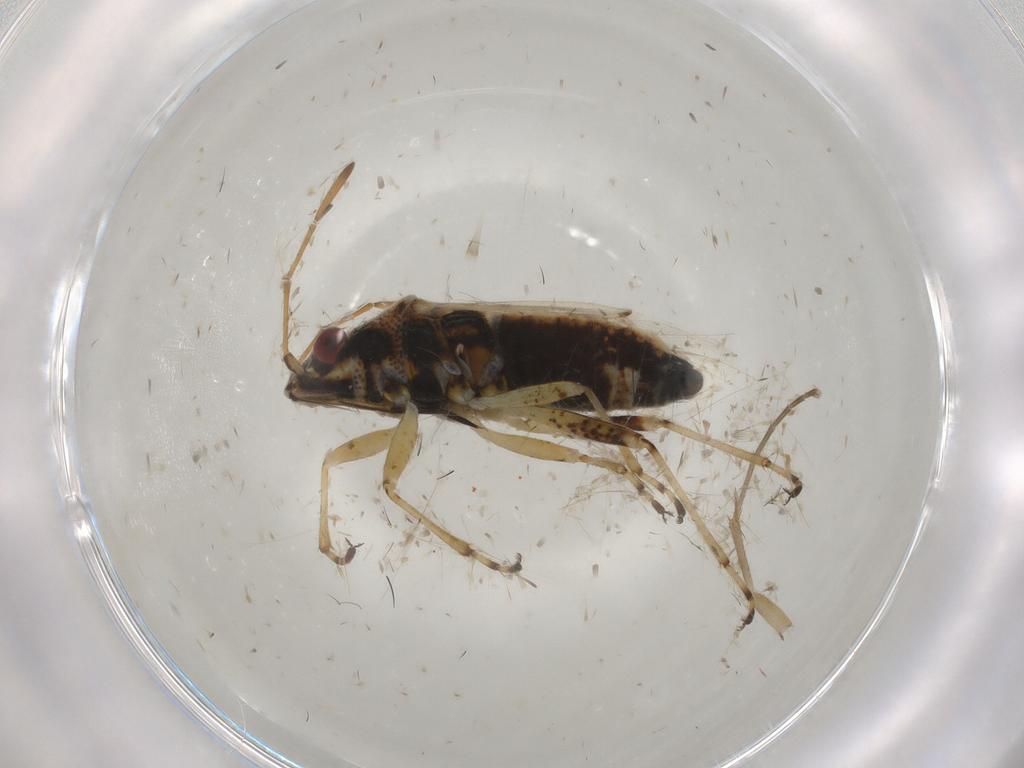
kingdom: Animalia
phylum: Arthropoda
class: Insecta
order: Hemiptera
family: Lygaeidae
